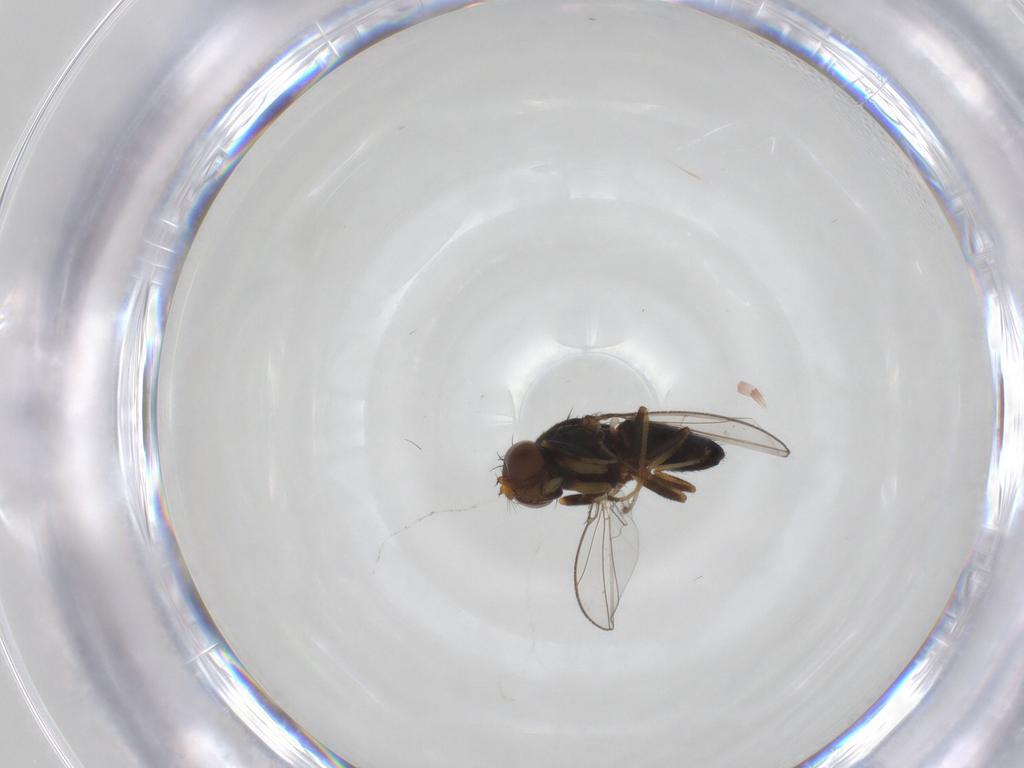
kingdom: Animalia
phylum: Arthropoda
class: Insecta
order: Diptera
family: Ephydridae
